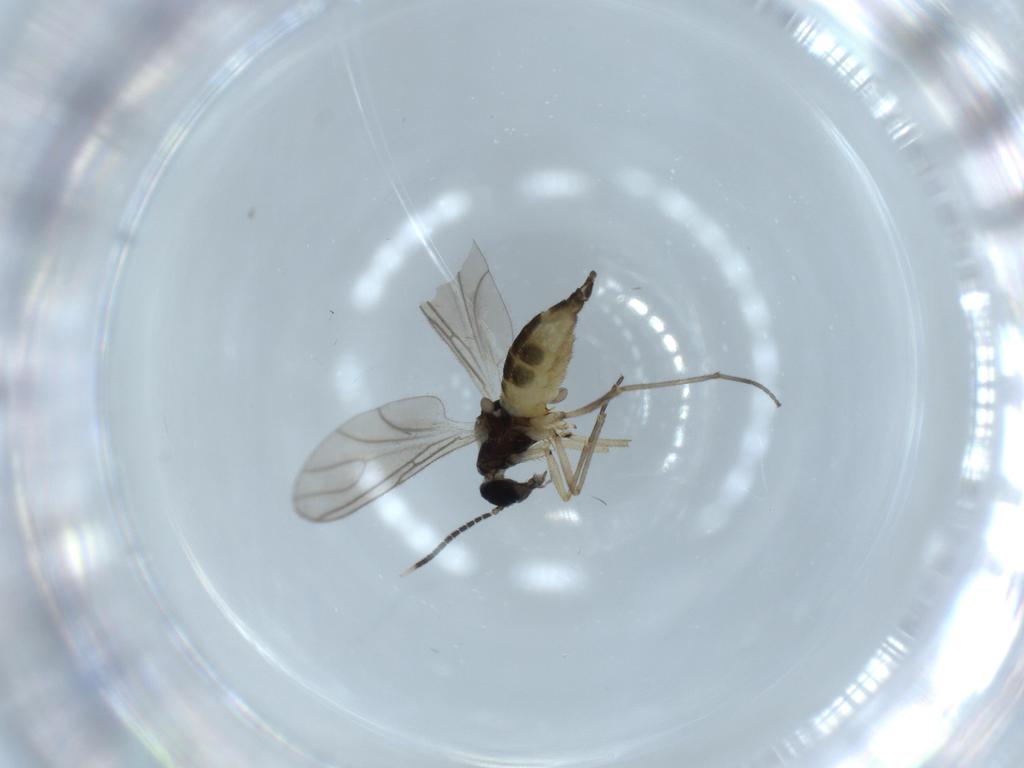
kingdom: Animalia
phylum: Arthropoda
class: Insecta
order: Diptera
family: Sciaridae
